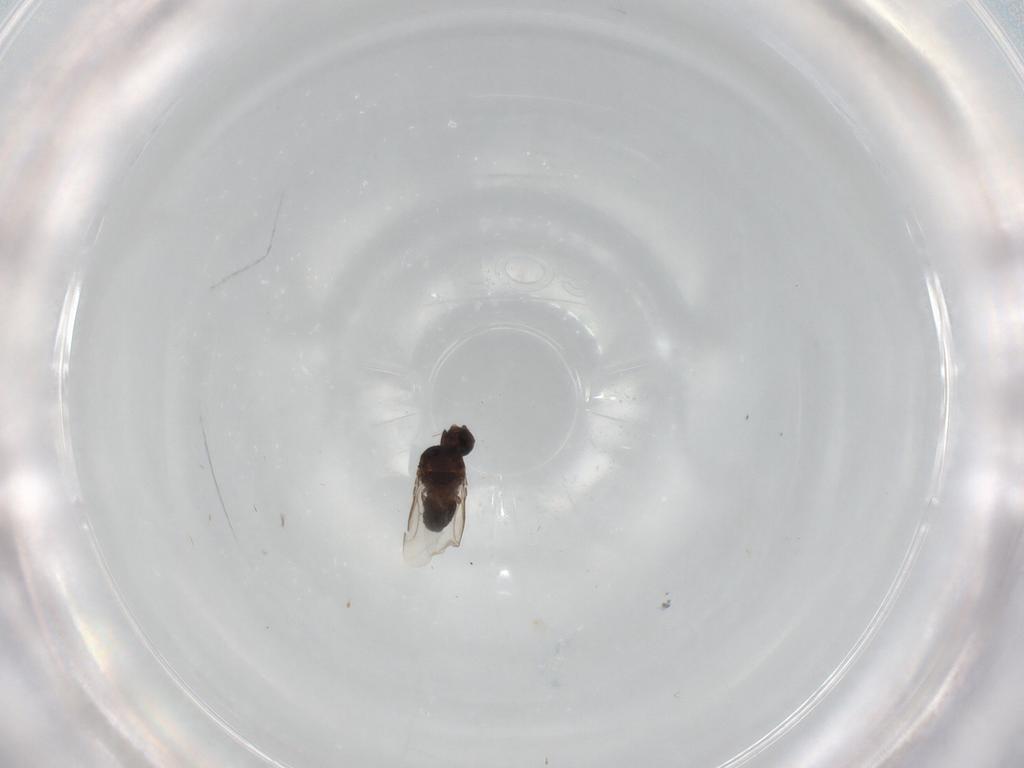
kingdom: Animalia
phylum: Arthropoda
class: Insecta
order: Diptera
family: Sphaeroceridae
